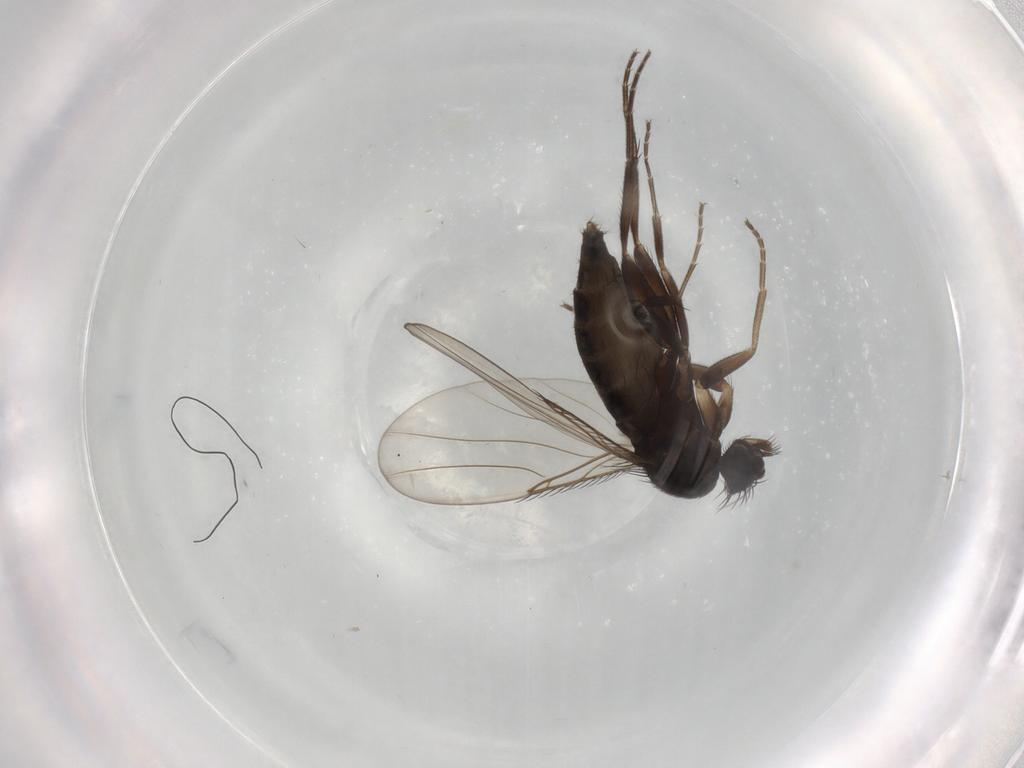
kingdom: Animalia
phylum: Arthropoda
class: Insecta
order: Diptera
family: Phoridae
